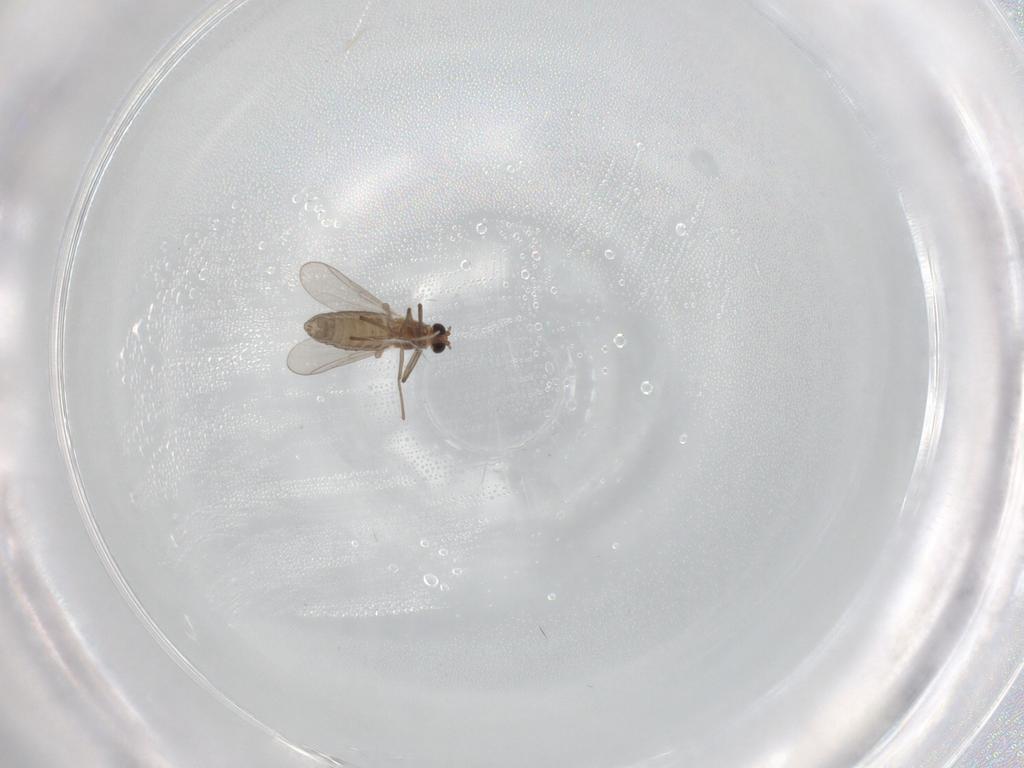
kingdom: Animalia
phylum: Arthropoda
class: Insecta
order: Diptera
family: Chironomidae
